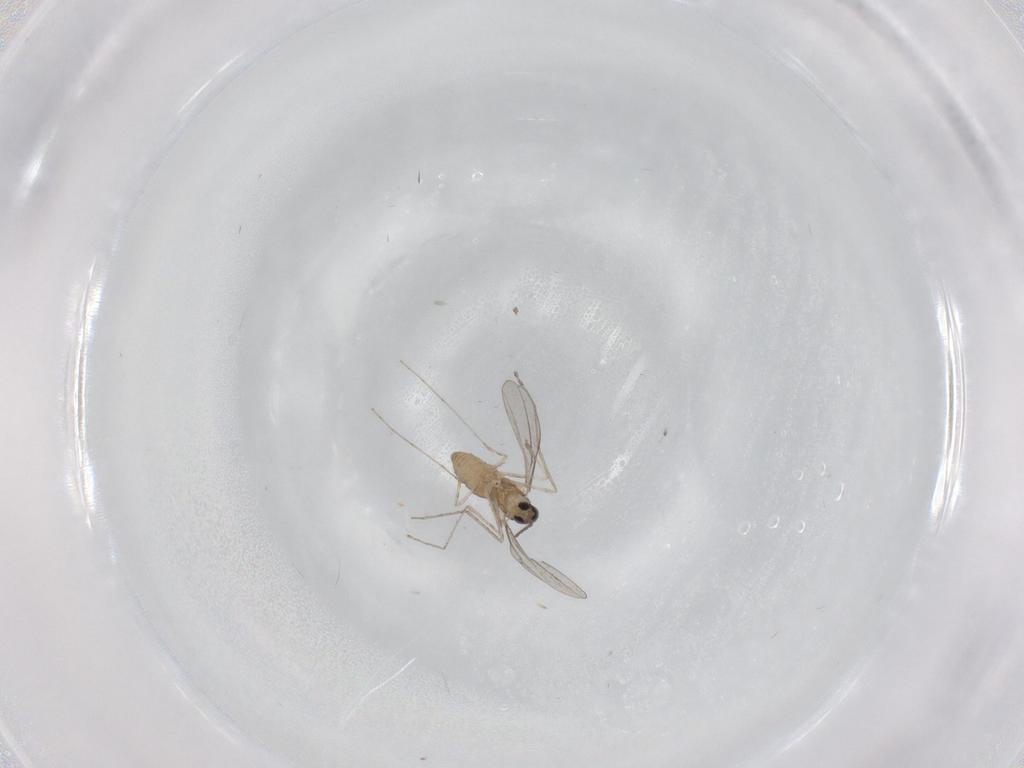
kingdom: Animalia
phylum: Arthropoda
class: Insecta
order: Diptera
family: Cecidomyiidae
